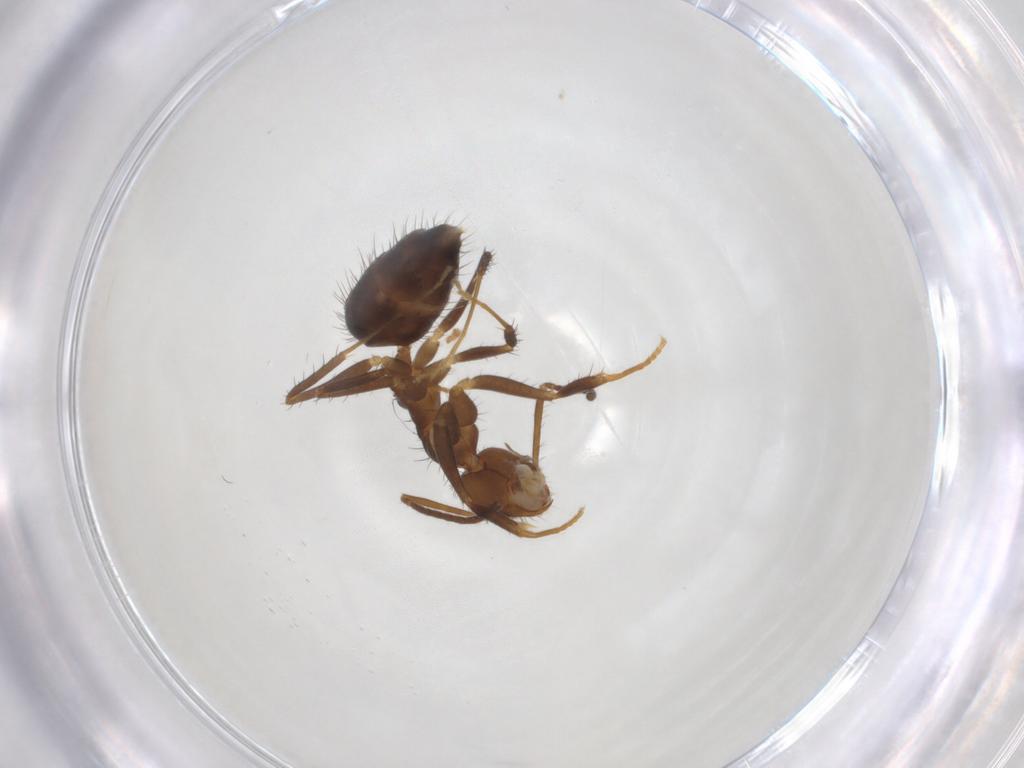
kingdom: Animalia
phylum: Arthropoda
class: Insecta
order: Hymenoptera
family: Formicidae
